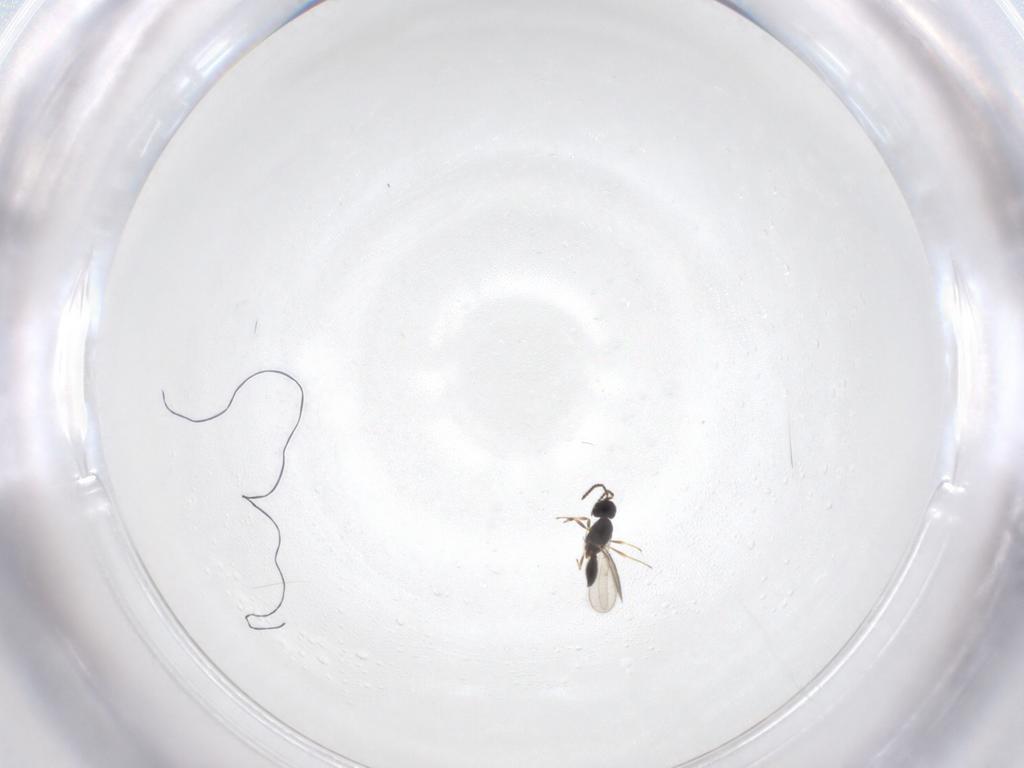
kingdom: Animalia
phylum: Arthropoda
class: Insecta
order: Hymenoptera
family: Scelionidae
